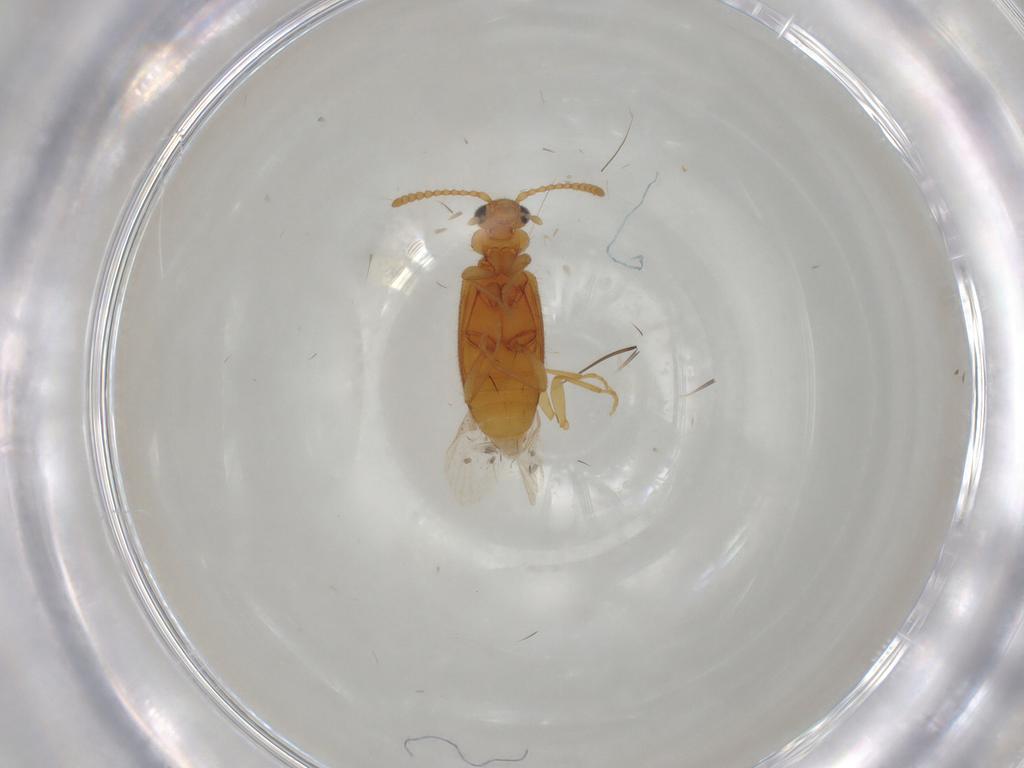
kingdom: Animalia
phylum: Arthropoda
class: Insecta
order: Coleoptera
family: Anthicidae
